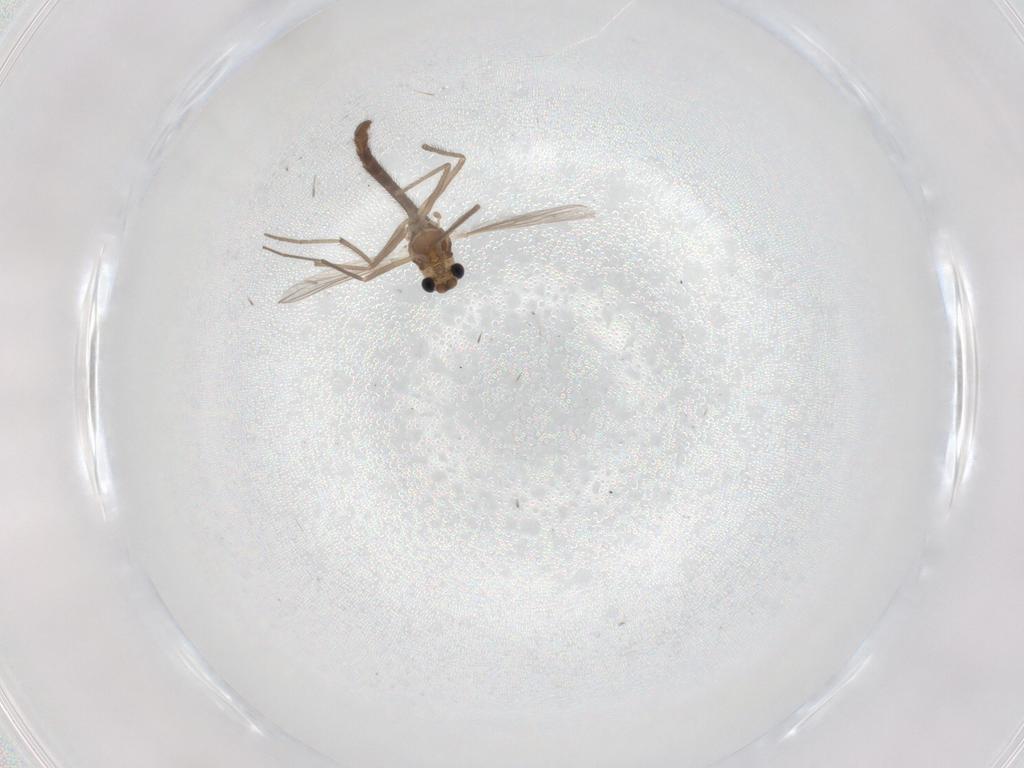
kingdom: Animalia
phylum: Arthropoda
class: Insecta
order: Diptera
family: Chironomidae
